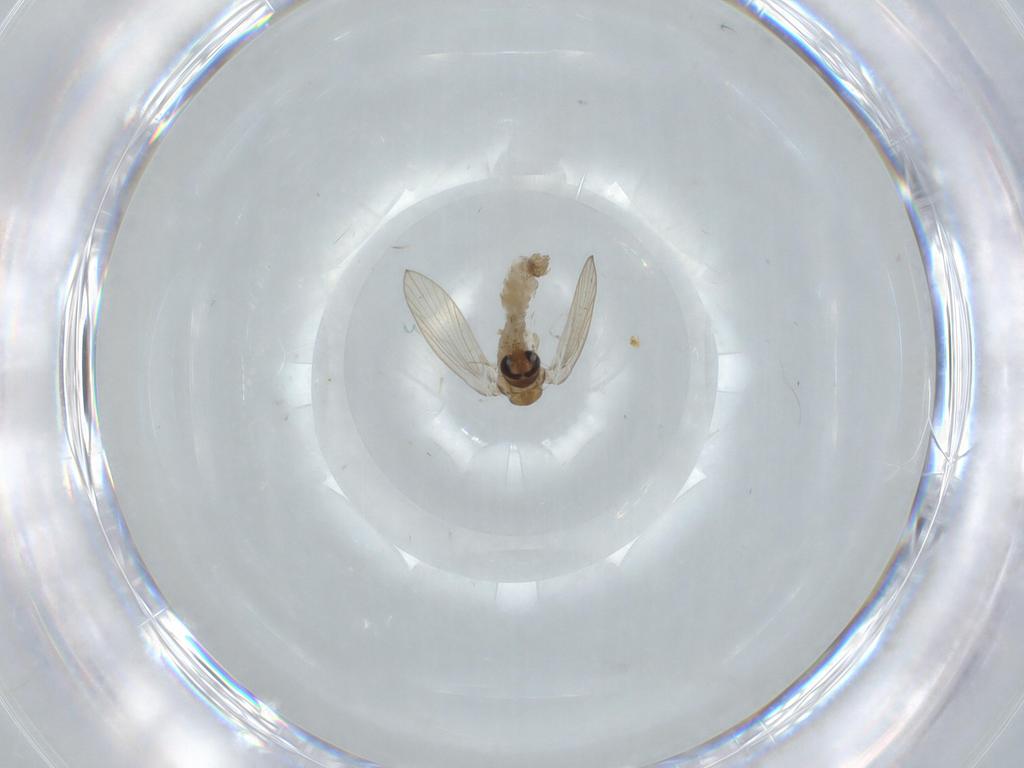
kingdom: Animalia
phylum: Arthropoda
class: Insecta
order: Diptera
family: Psychodidae
